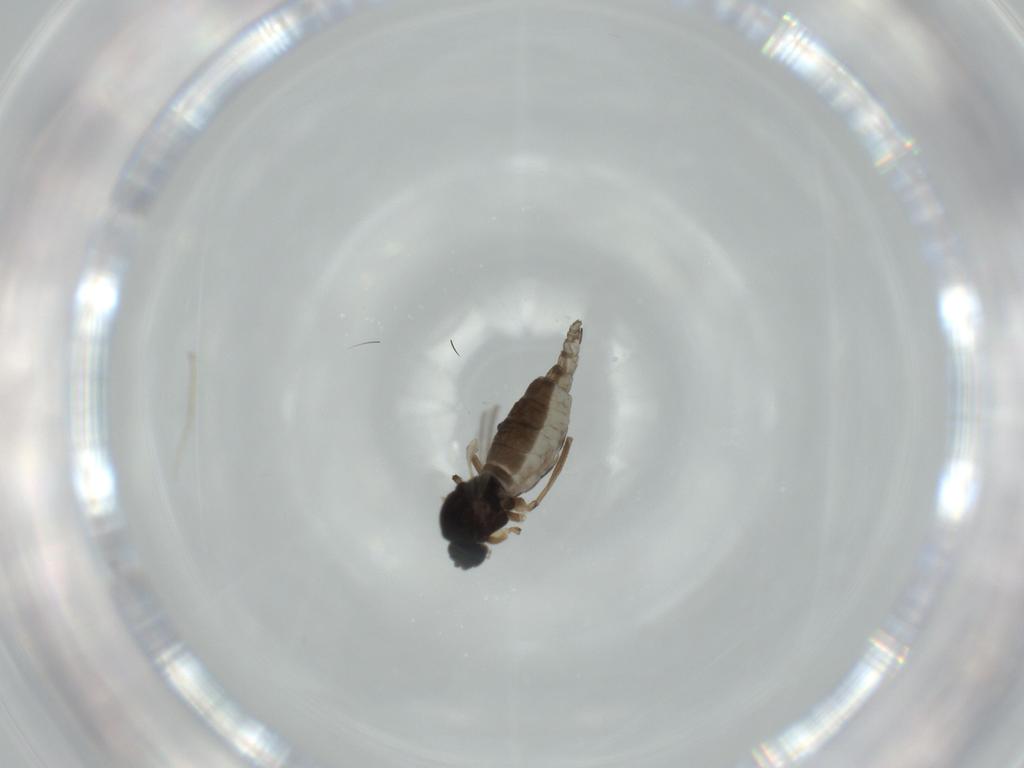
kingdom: Animalia
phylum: Arthropoda
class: Insecta
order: Diptera
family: Sciaridae
